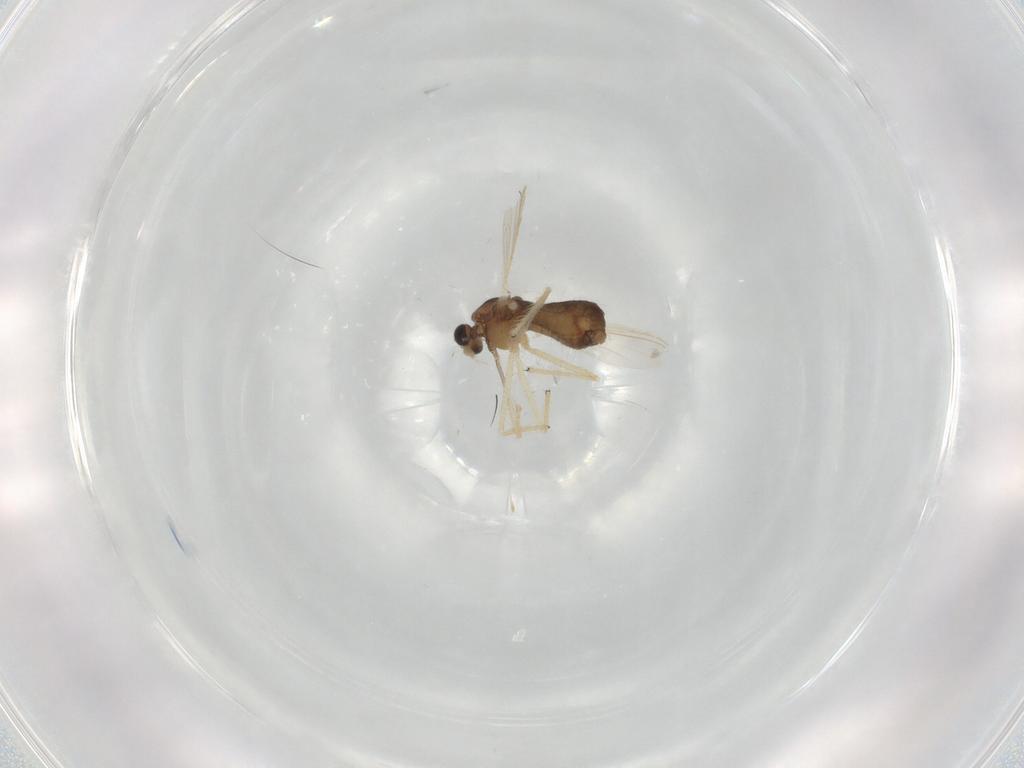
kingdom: Animalia
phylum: Arthropoda
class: Insecta
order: Diptera
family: Chironomidae
